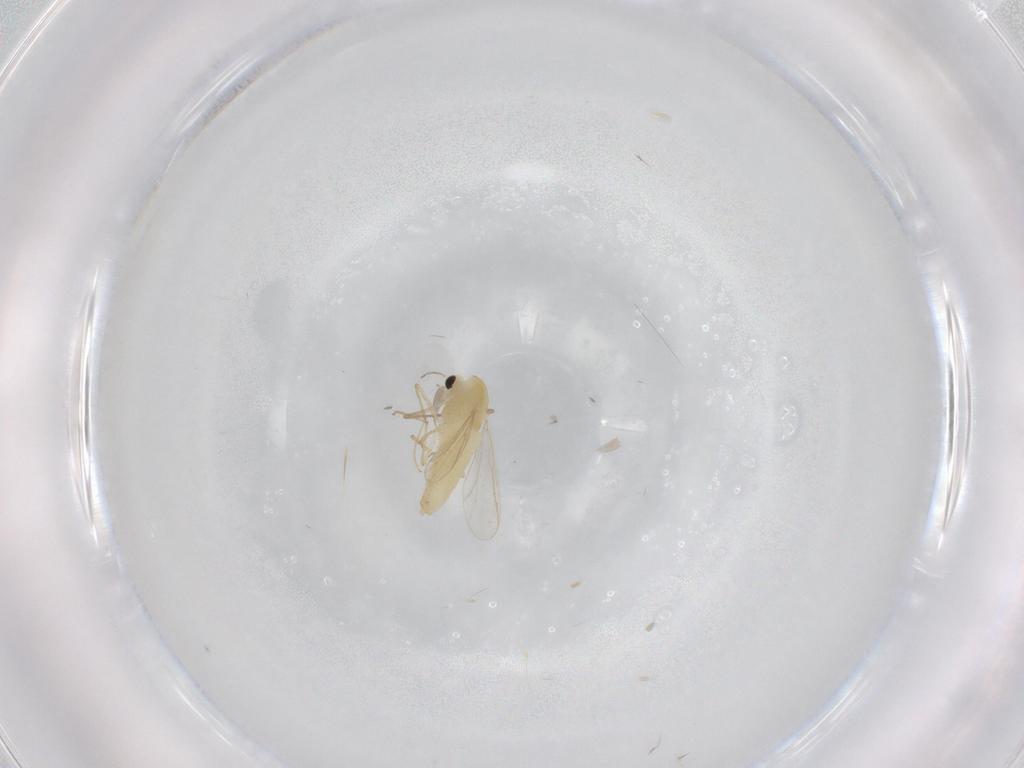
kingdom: Animalia
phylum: Arthropoda
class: Insecta
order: Diptera
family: Chironomidae
